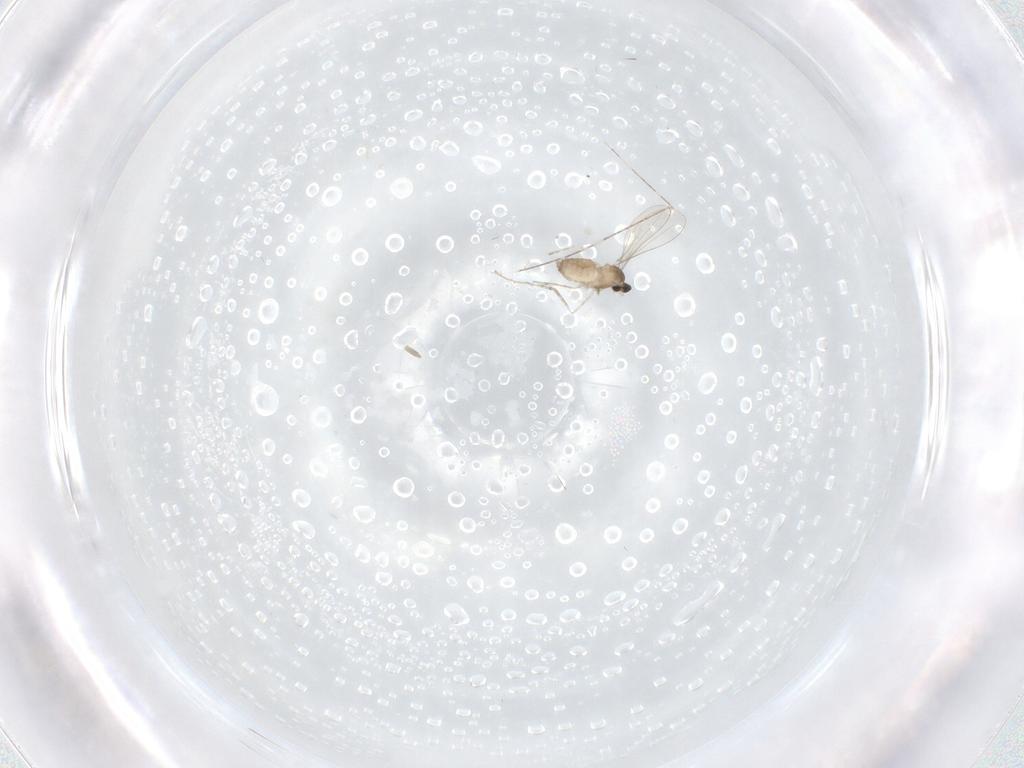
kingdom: Animalia
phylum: Arthropoda
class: Insecta
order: Diptera
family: Cecidomyiidae
